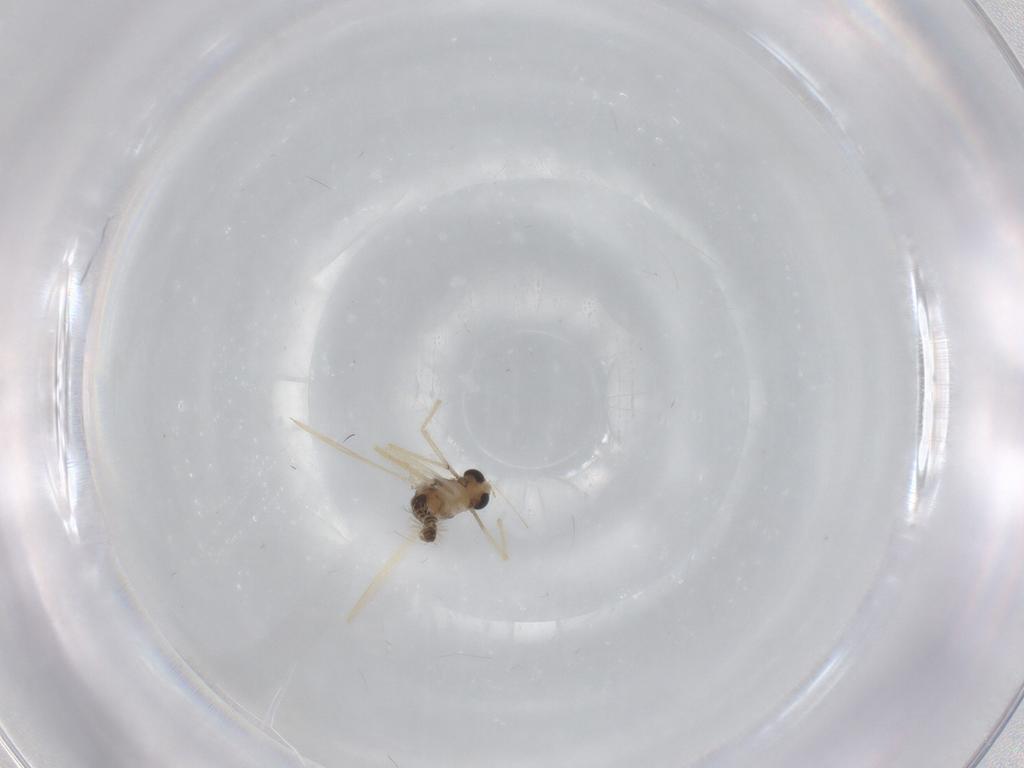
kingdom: Animalia
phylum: Arthropoda
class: Insecta
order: Diptera
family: Chironomidae
